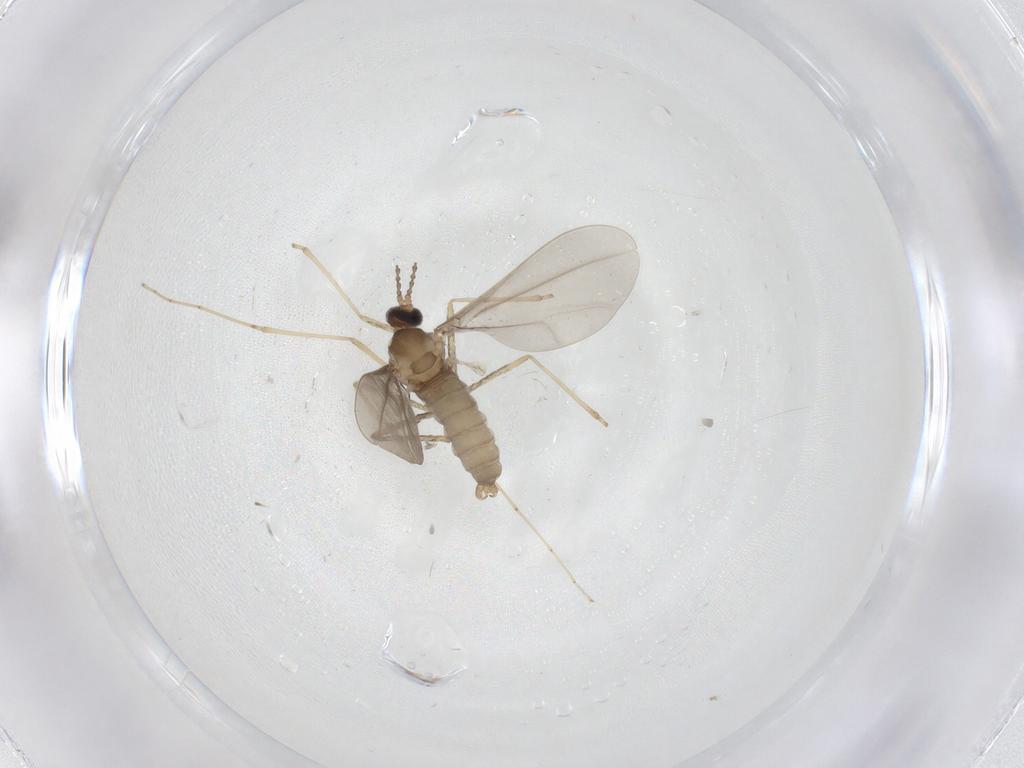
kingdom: Animalia
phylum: Arthropoda
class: Insecta
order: Diptera
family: Cecidomyiidae
